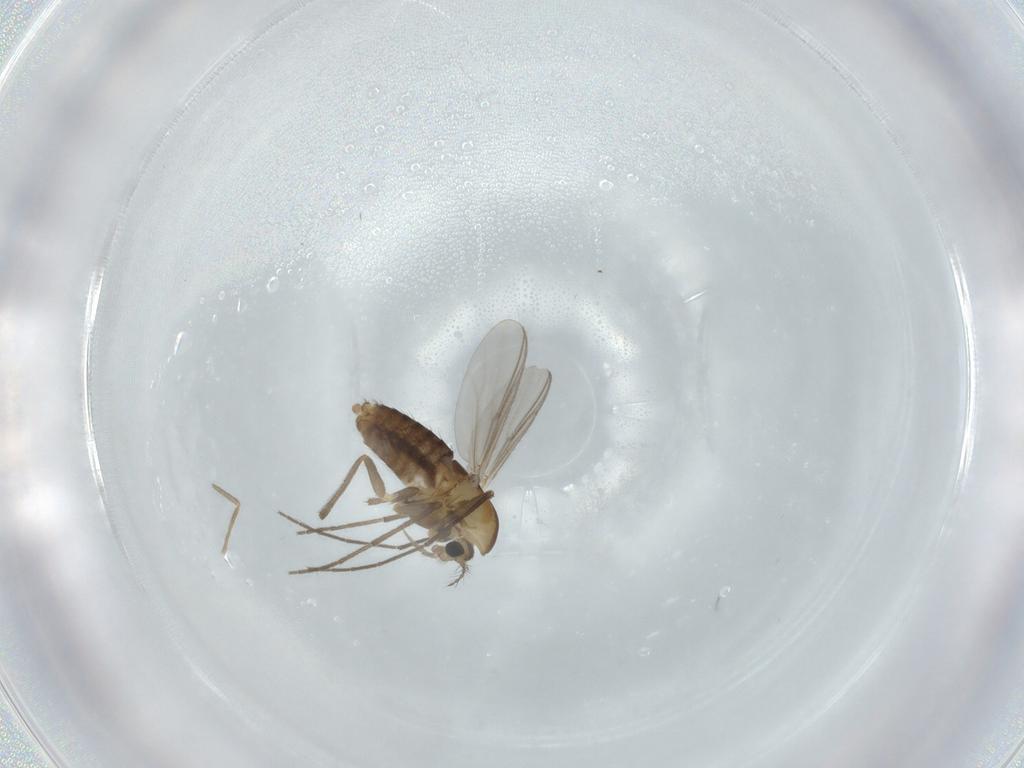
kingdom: Animalia
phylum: Arthropoda
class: Insecta
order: Diptera
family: Chironomidae
